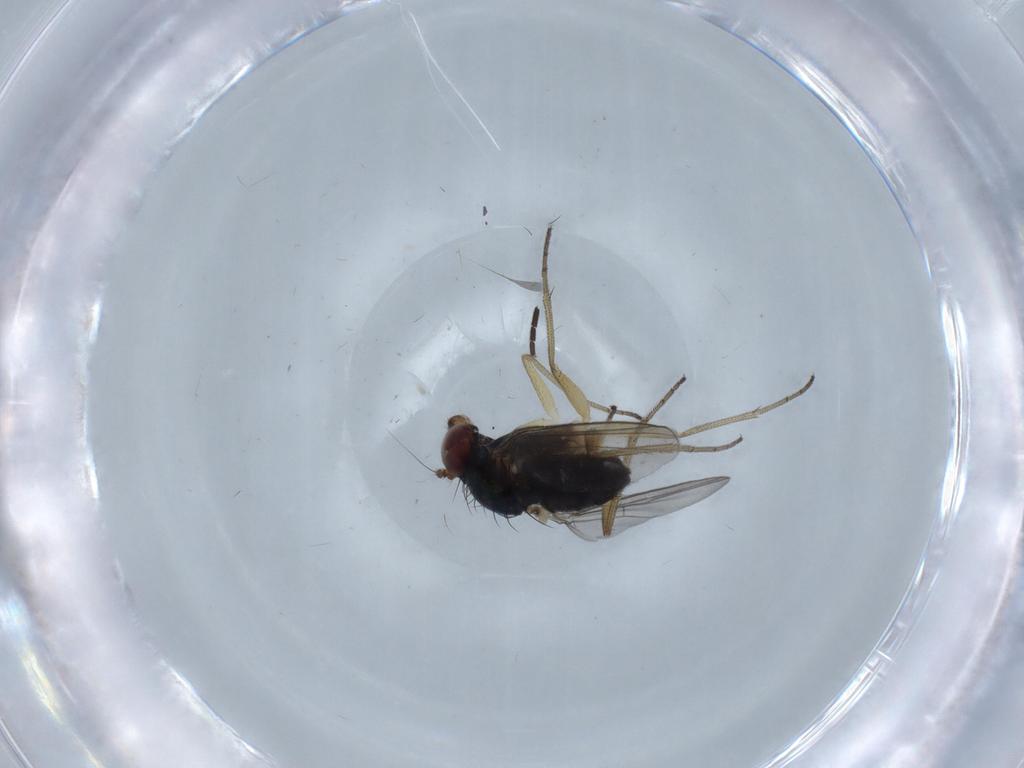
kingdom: Animalia
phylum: Arthropoda
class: Insecta
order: Diptera
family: Dolichopodidae
